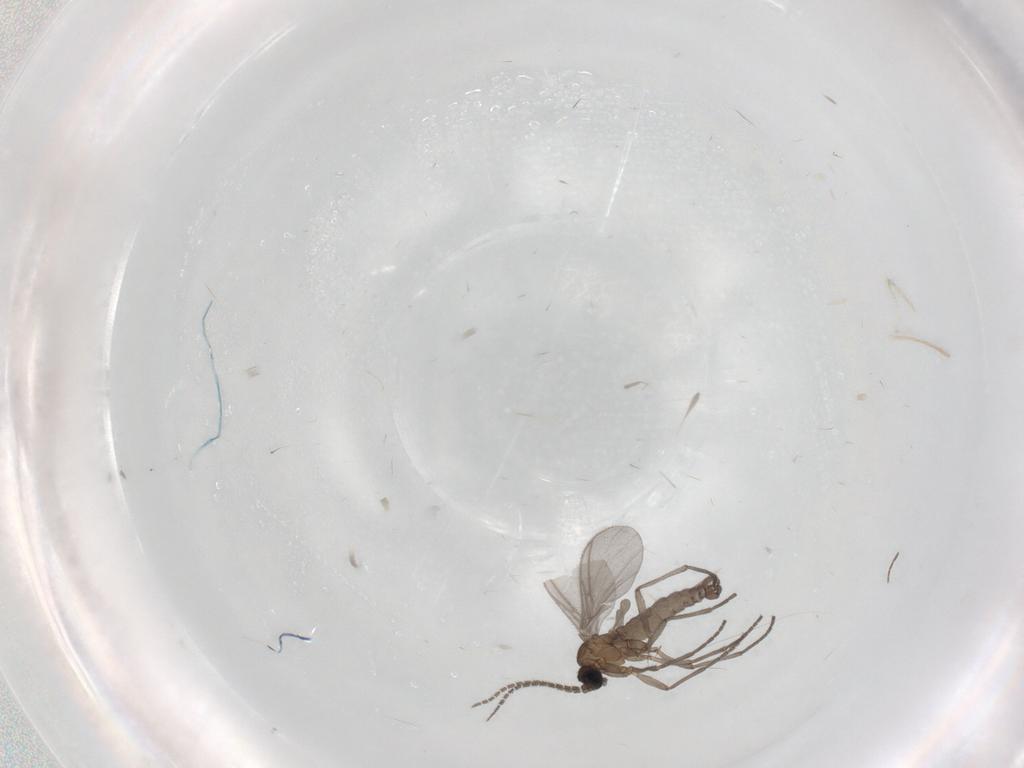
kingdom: Animalia
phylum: Arthropoda
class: Insecta
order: Diptera
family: Sciaridae
